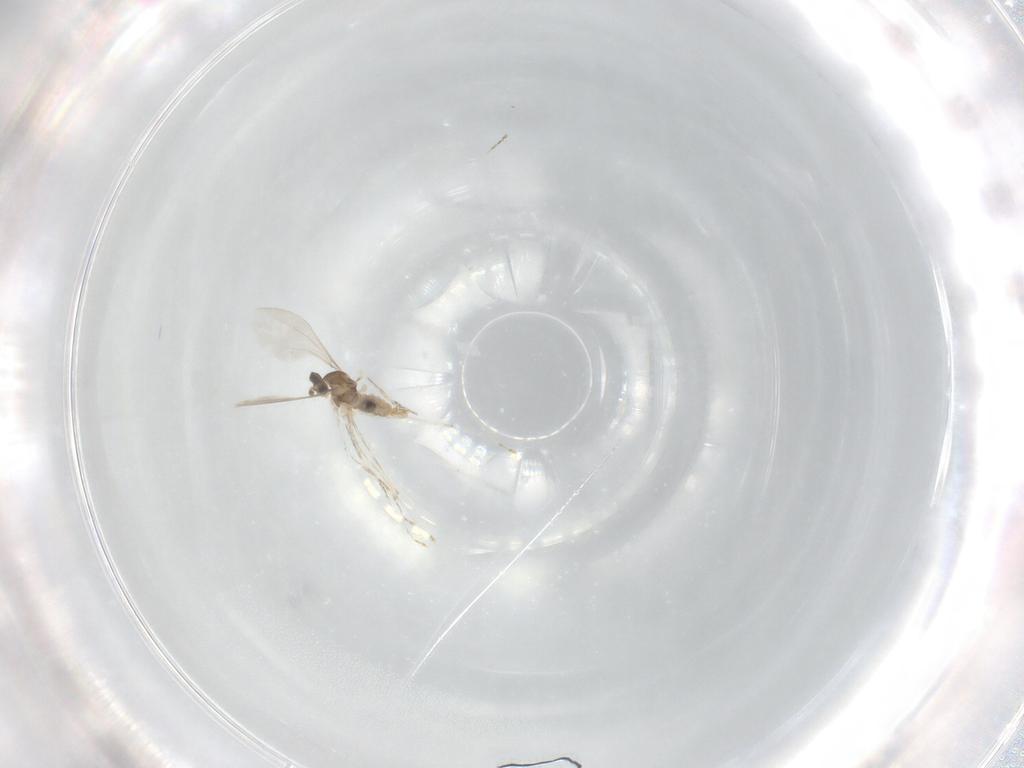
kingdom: Animalia
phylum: Arthropoda
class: Insecta
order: Diptera
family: Cecidomyiidae
